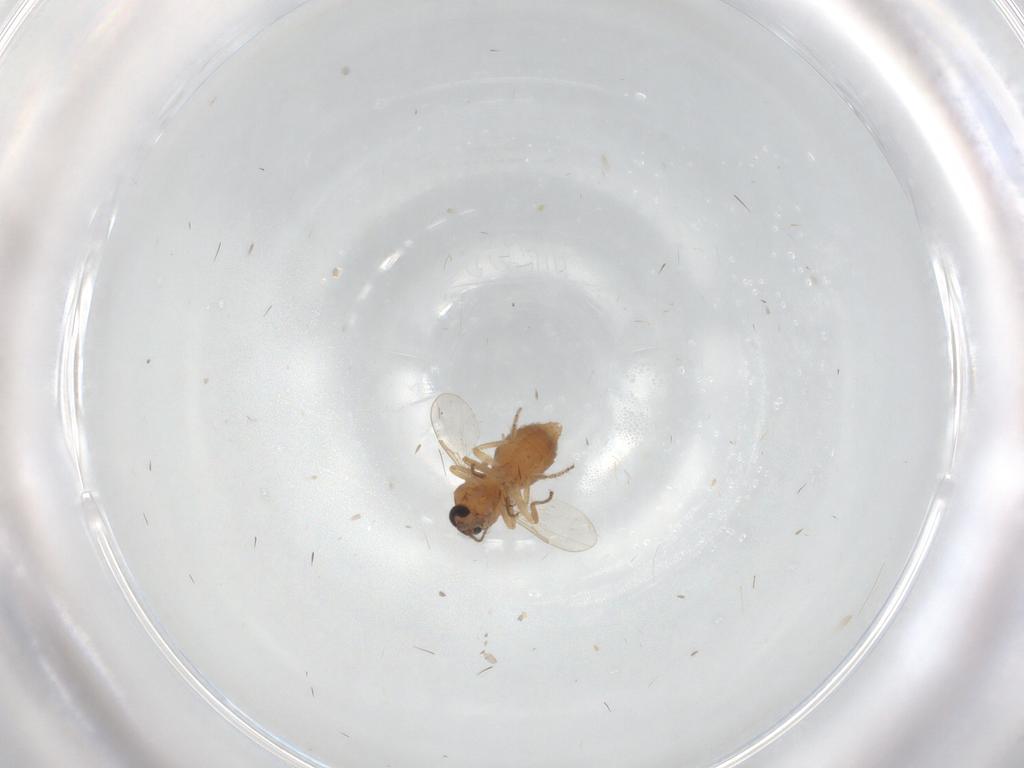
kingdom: Animalia
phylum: Arthropoda
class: Insecta
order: Diptera
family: Ceratopogonidae
